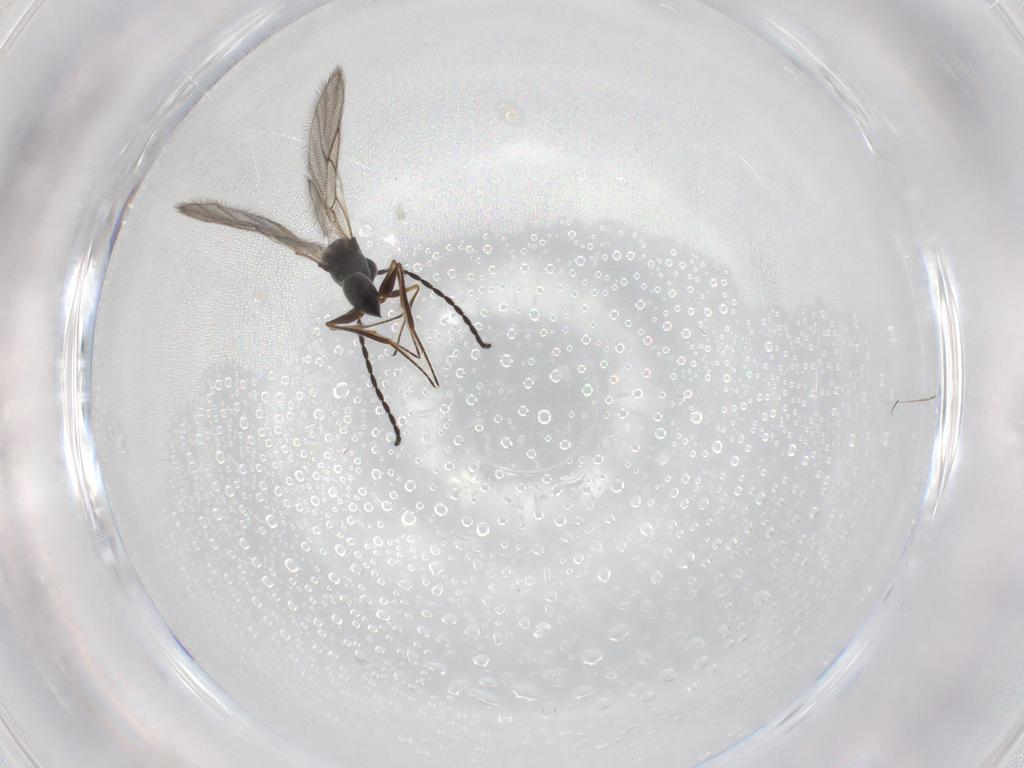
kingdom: Animalia
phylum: Arthropoda
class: Insecta
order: Hymenoptera
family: Figitidae
